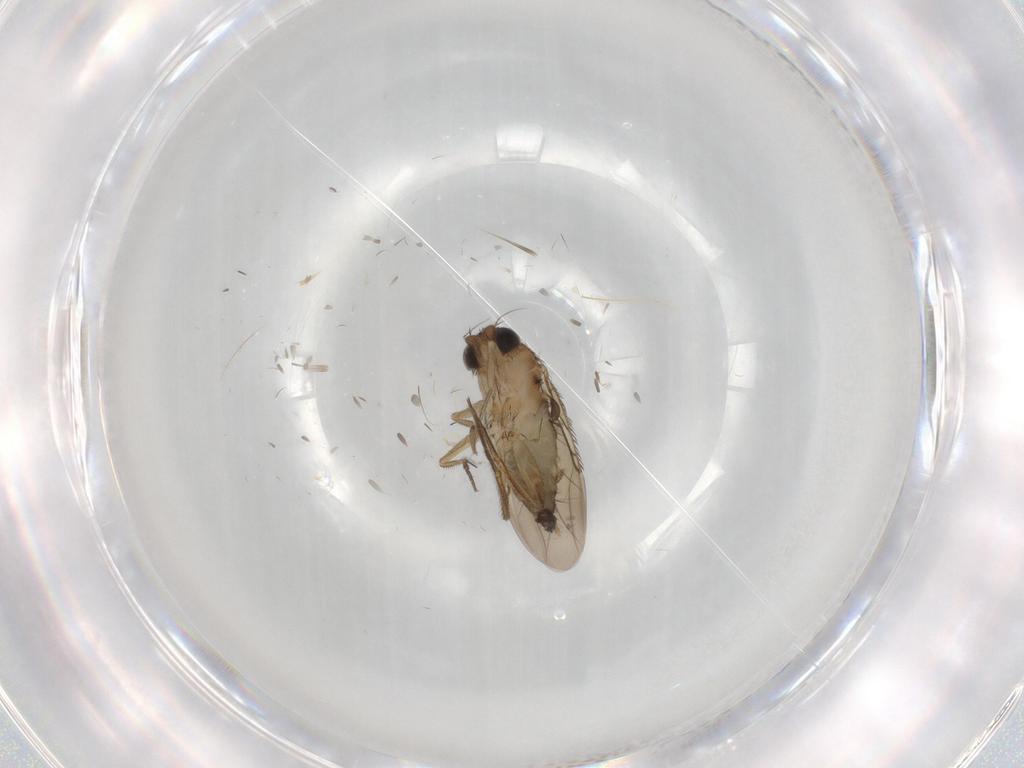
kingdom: Animalia
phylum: Arthropoda
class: Insecta
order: Diptera
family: Phoridae
